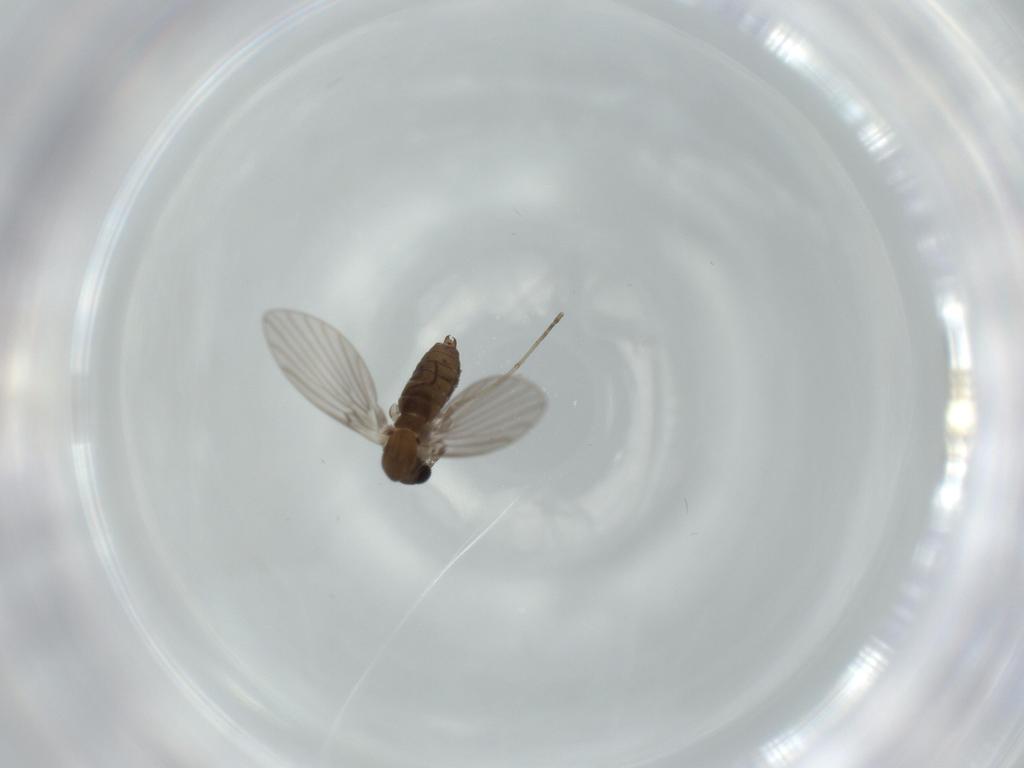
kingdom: Animalia
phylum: Arthropoda
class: Insecta
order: Diptera
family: Psychodidae
